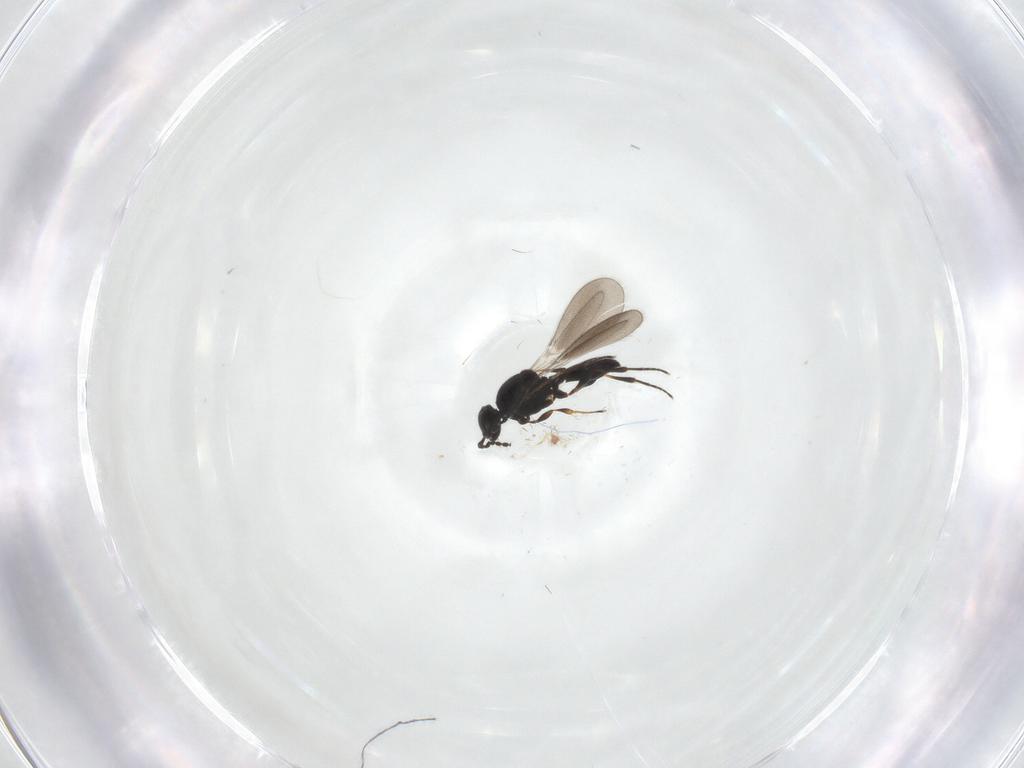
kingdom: Animalia
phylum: Arthropoda
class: Insecta
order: Hymenoptera
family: Platygastridae
